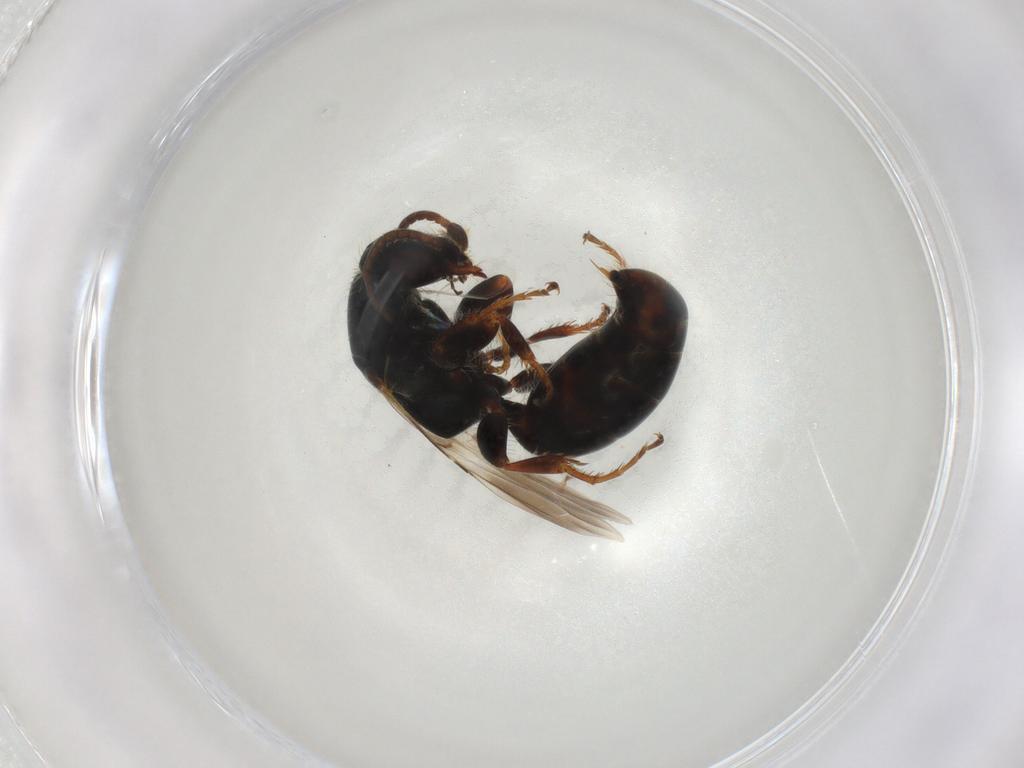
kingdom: Animalia
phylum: Arthropoda
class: Insecta
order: Hymenoptera
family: Bethylidae
